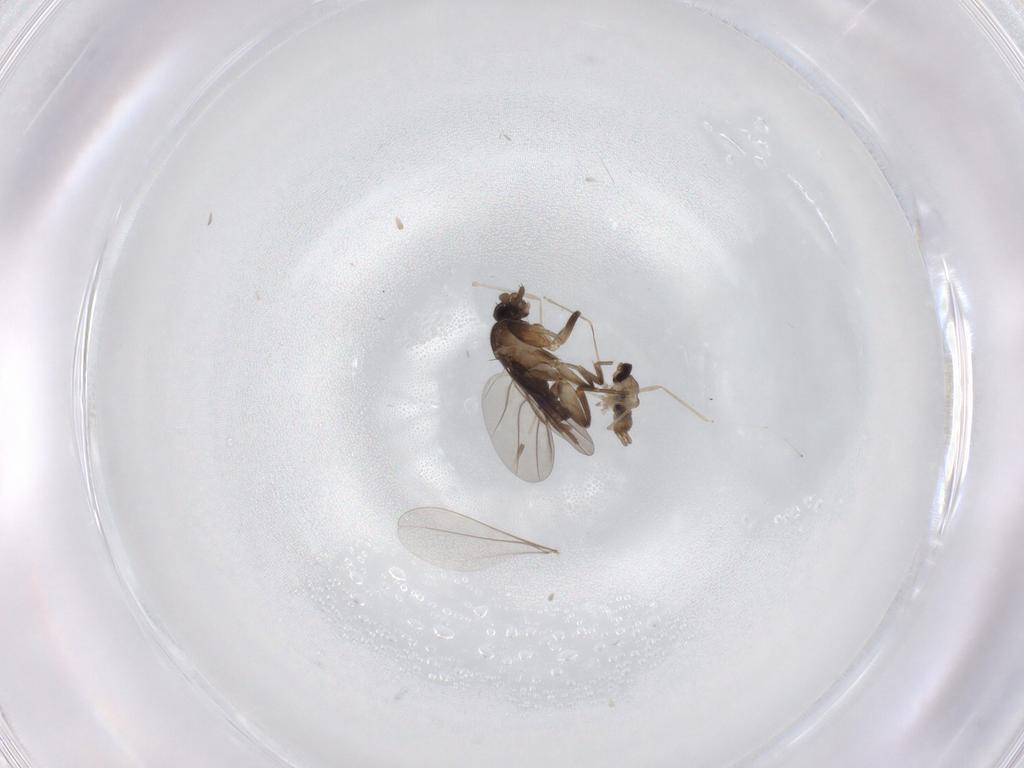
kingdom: Animalia
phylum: Arthropoda
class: Insecta
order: Diptera
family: Cecidomyiidae
